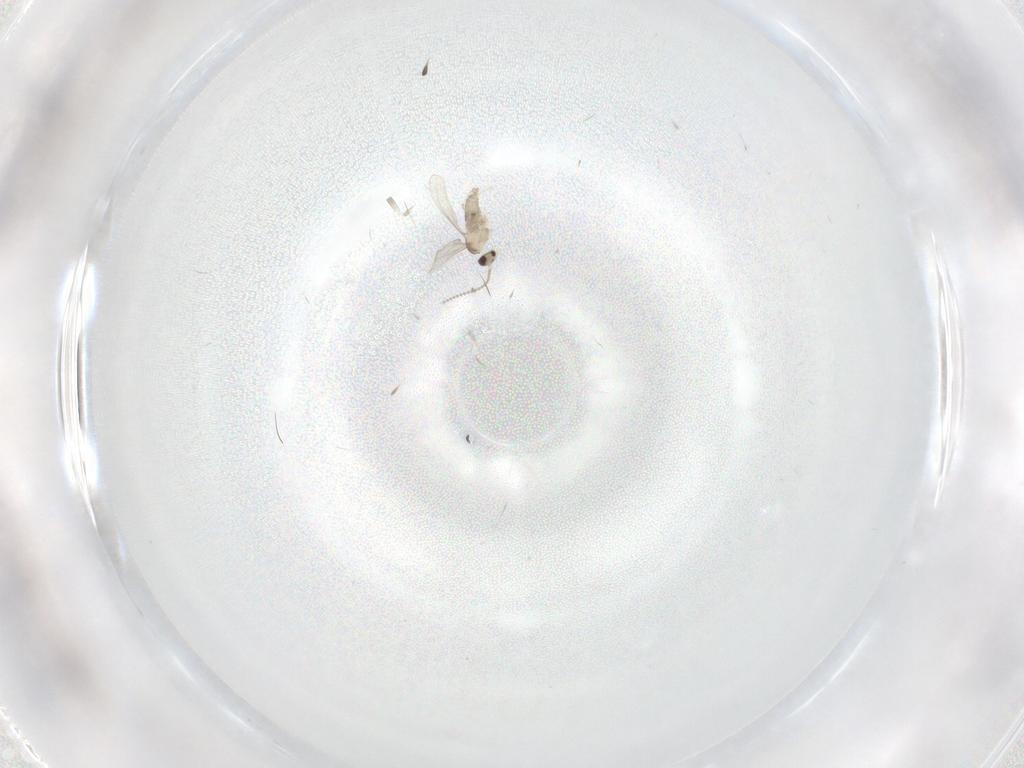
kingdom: Animalia
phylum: Arthropoda
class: Insecta
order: Diptera
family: Cecidomyiidae
